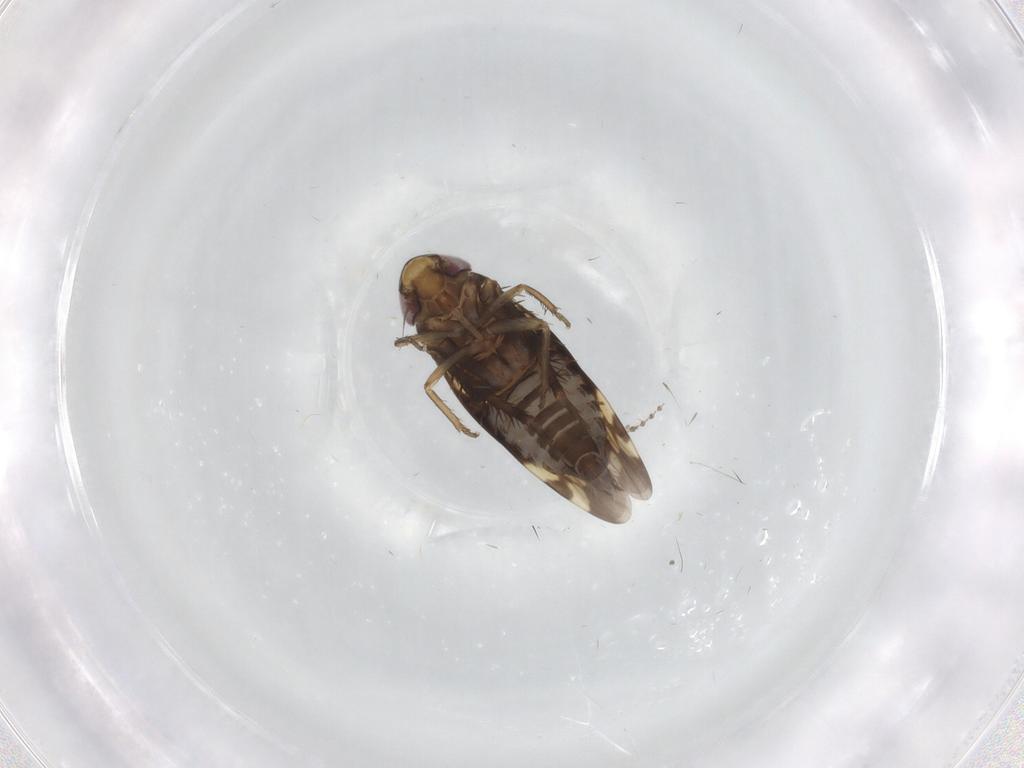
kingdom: Animalia
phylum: Arthropoda
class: Insecta
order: Hemiptera
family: Cicadellidae
